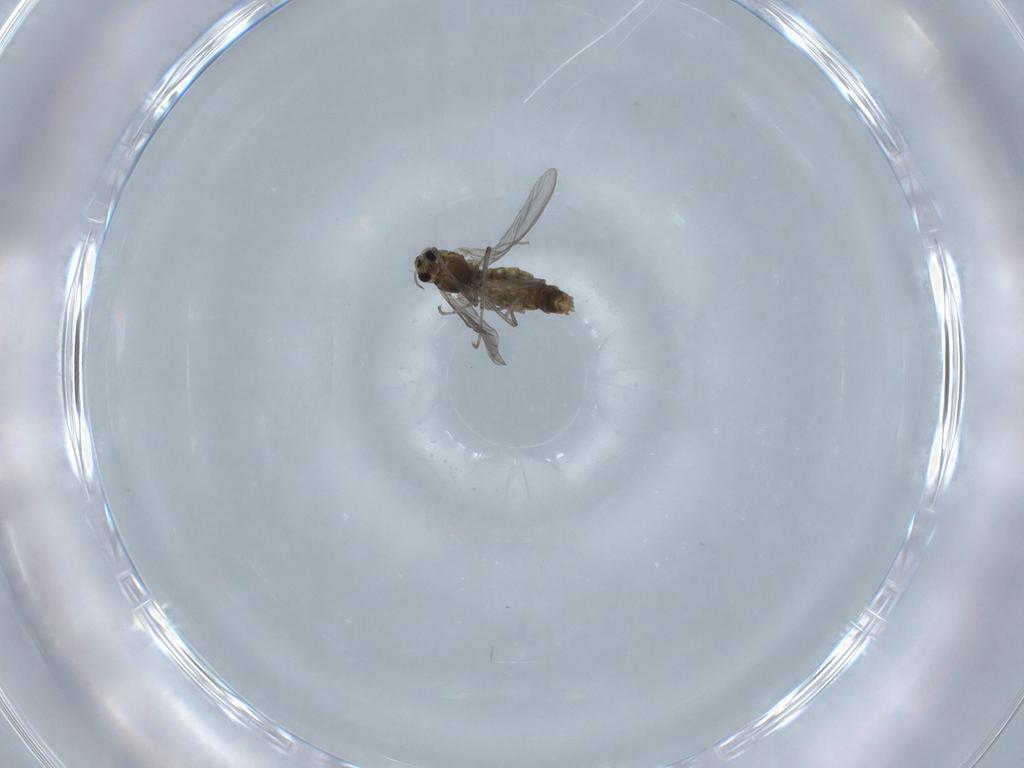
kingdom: Animalia
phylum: Arthropoda
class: Insecta
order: Diptera
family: Chironomidae
